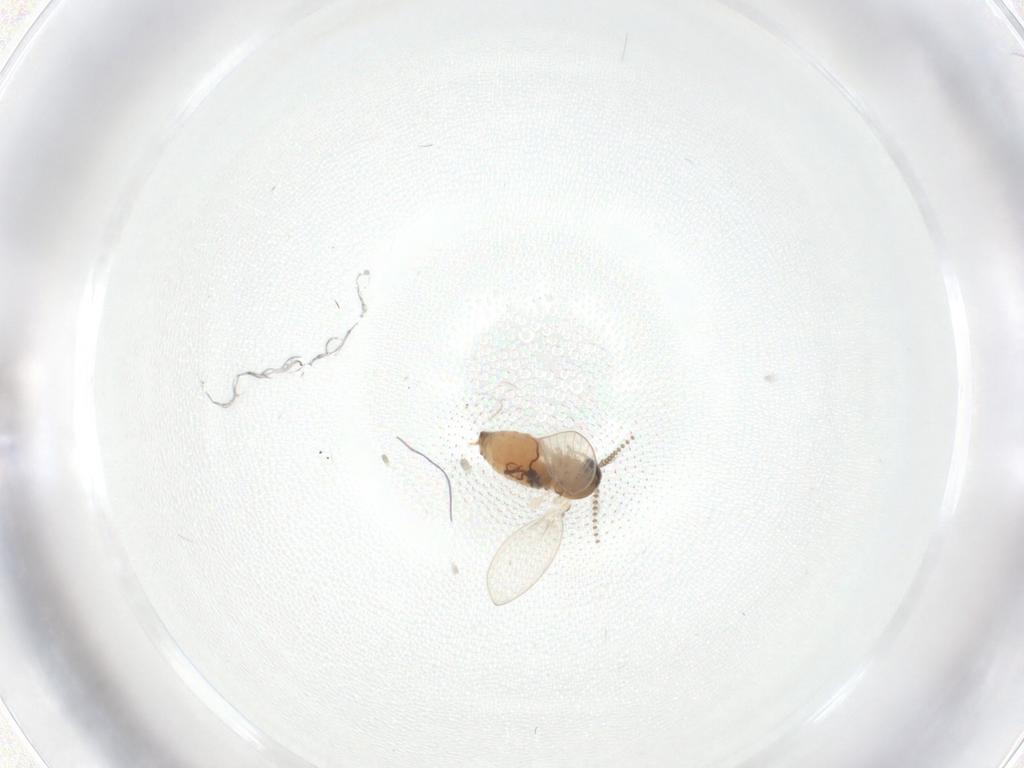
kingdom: Animalia
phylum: Arthropoda
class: Insecta
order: Diptera
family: Psychodidae
